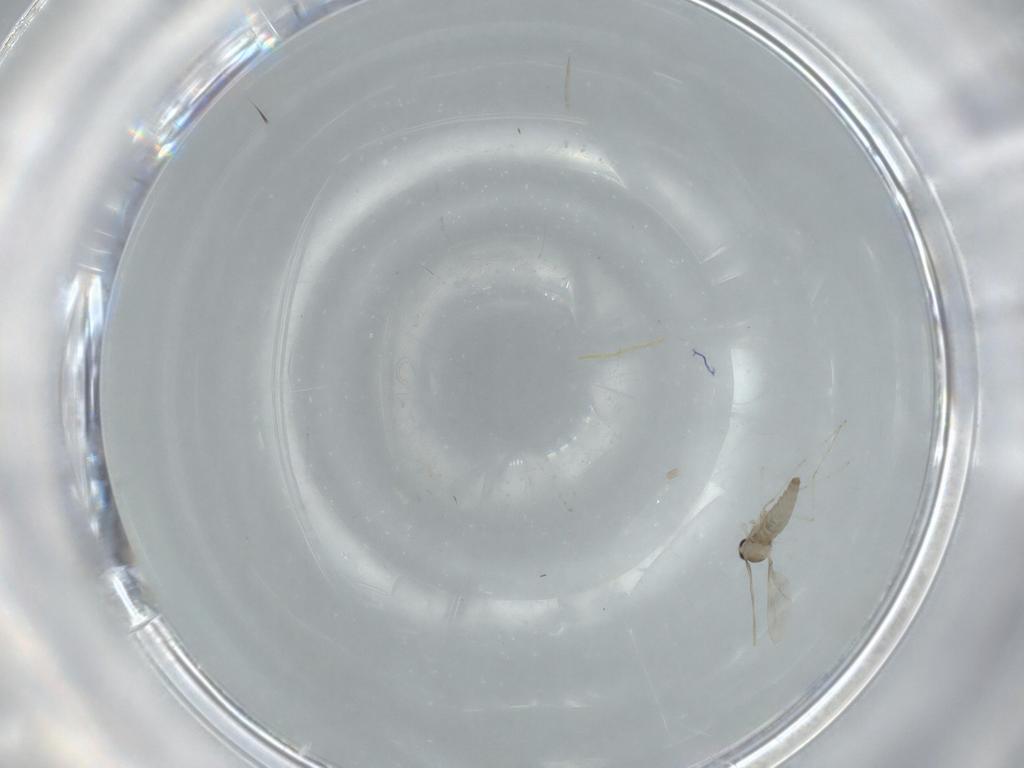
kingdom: Animalia
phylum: Arthropoda
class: Insecta
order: Diptera
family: Cecidomyiidae
